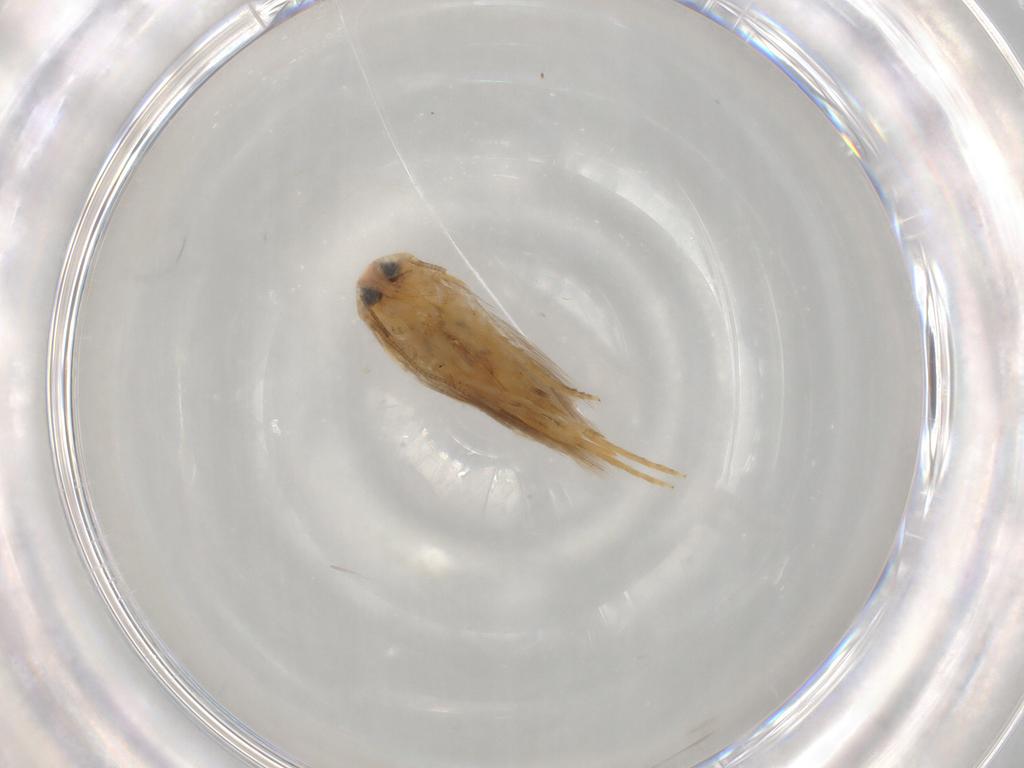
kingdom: Animalia
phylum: Arthropoda
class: Insecta
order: Lepidoptera
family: Opostegidae
